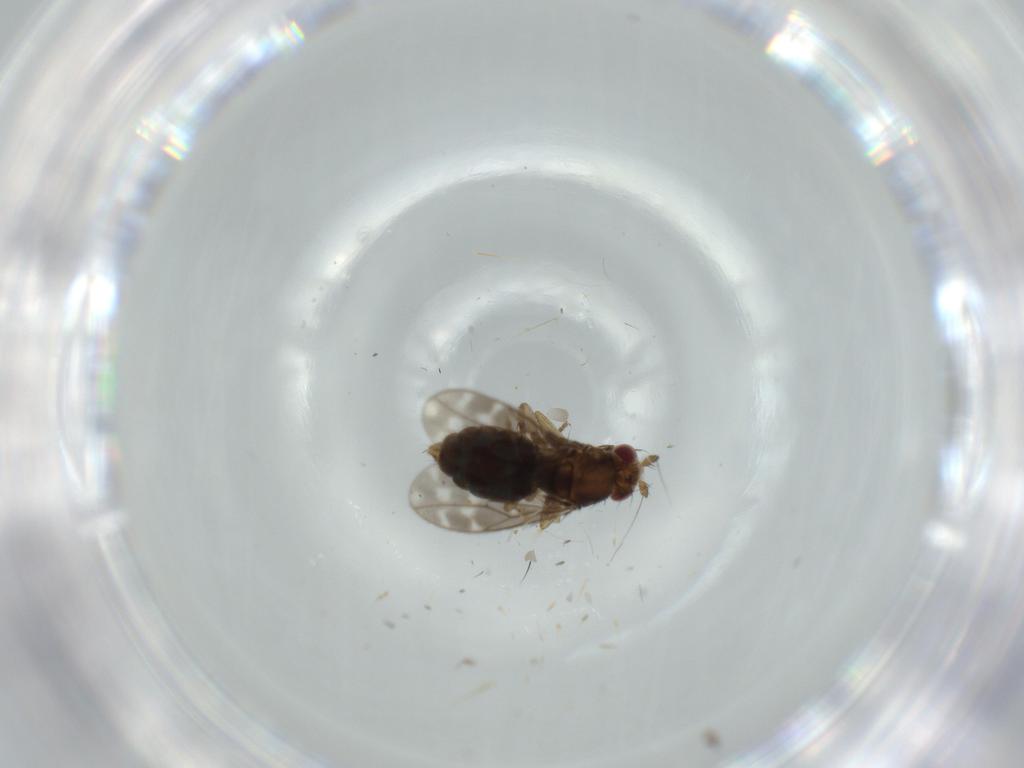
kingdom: Animalia
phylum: Arthropoda
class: Insecta
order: Diptera
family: Sphaeroceridae
